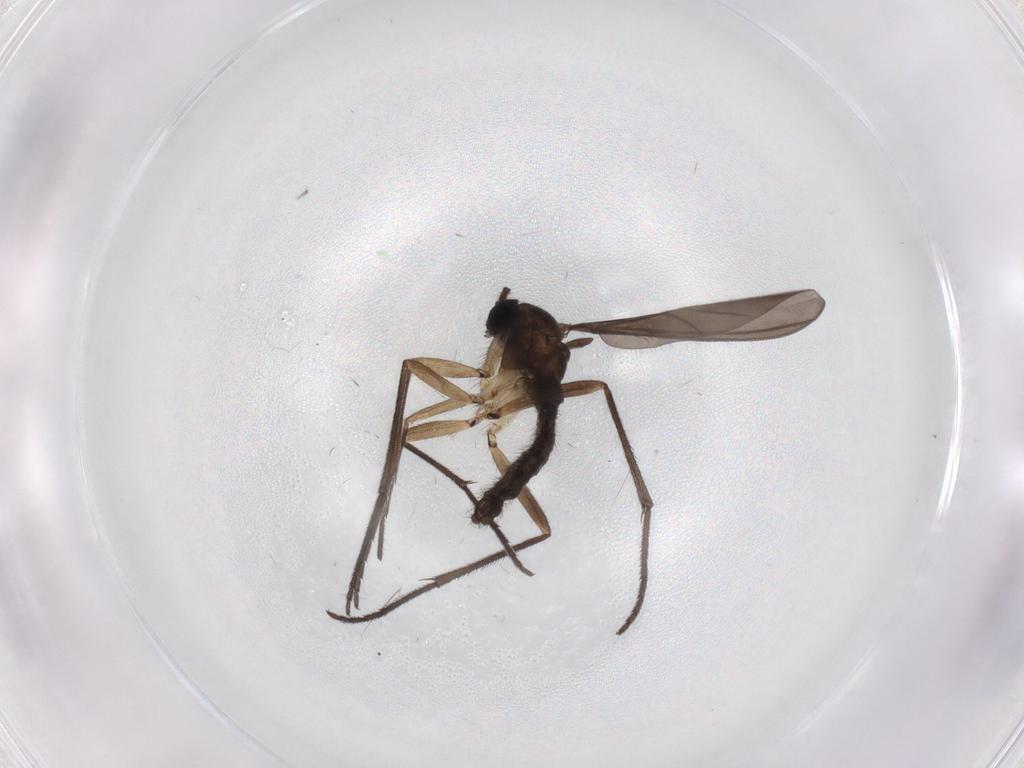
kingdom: Animalia
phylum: Arthropoda
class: Insecta
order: Diptera
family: Sciaridae
